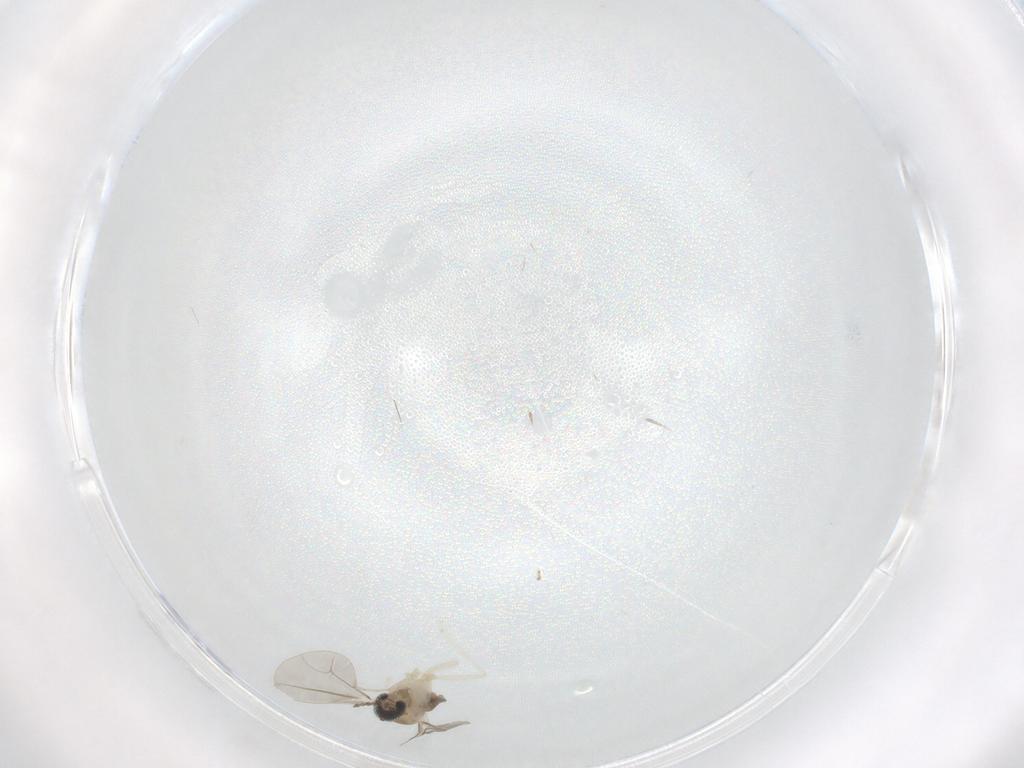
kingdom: Animalia
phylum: Arthropoda
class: Insecta
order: Diptera
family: Cecidomyiidae
